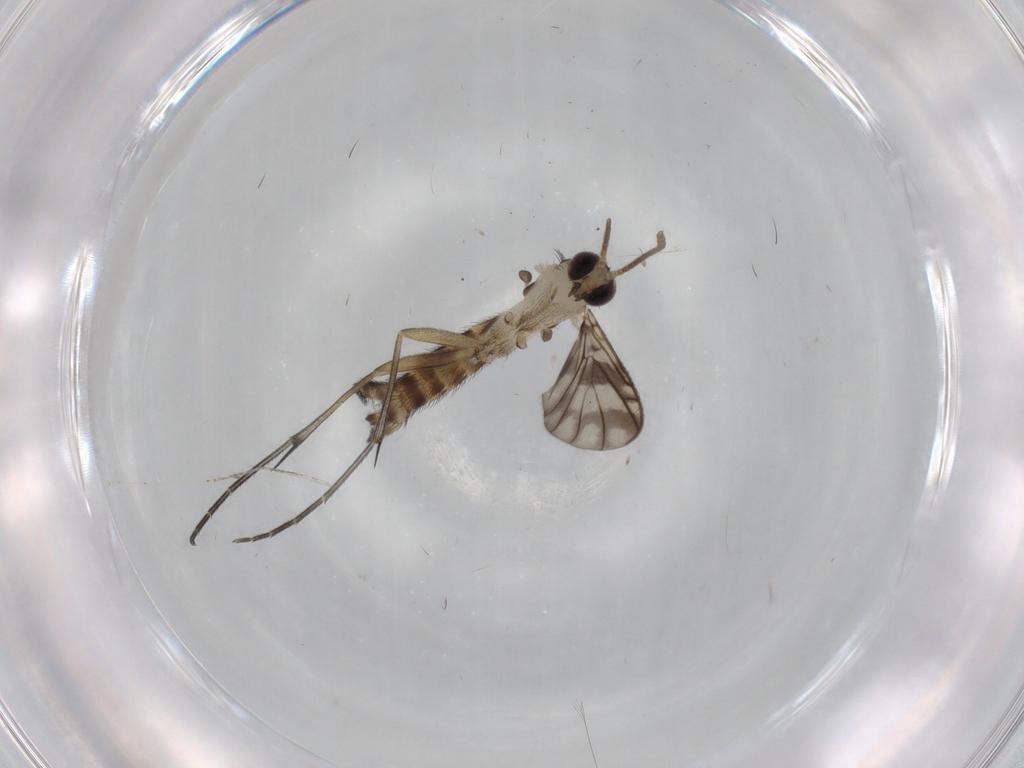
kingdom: Animalia
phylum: Arthropoda
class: Insecta
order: Diptera
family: Keroplatidae
